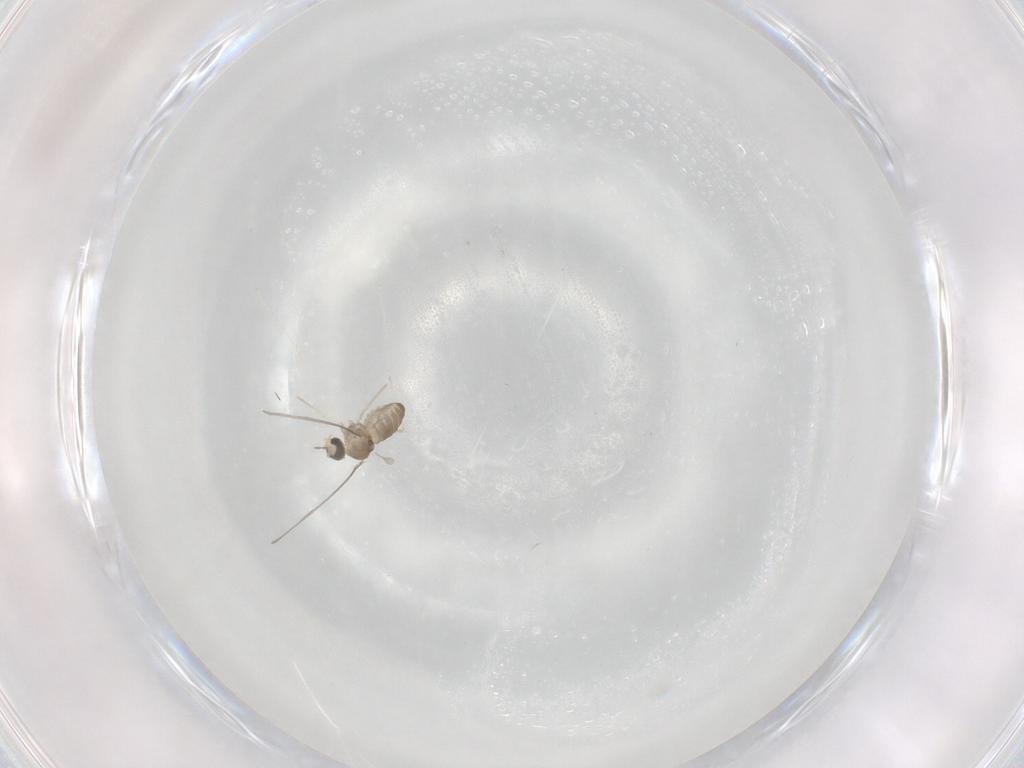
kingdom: Animalia
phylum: Arthropoda
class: Insecta
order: Diptera
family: Cecidomyiidae
